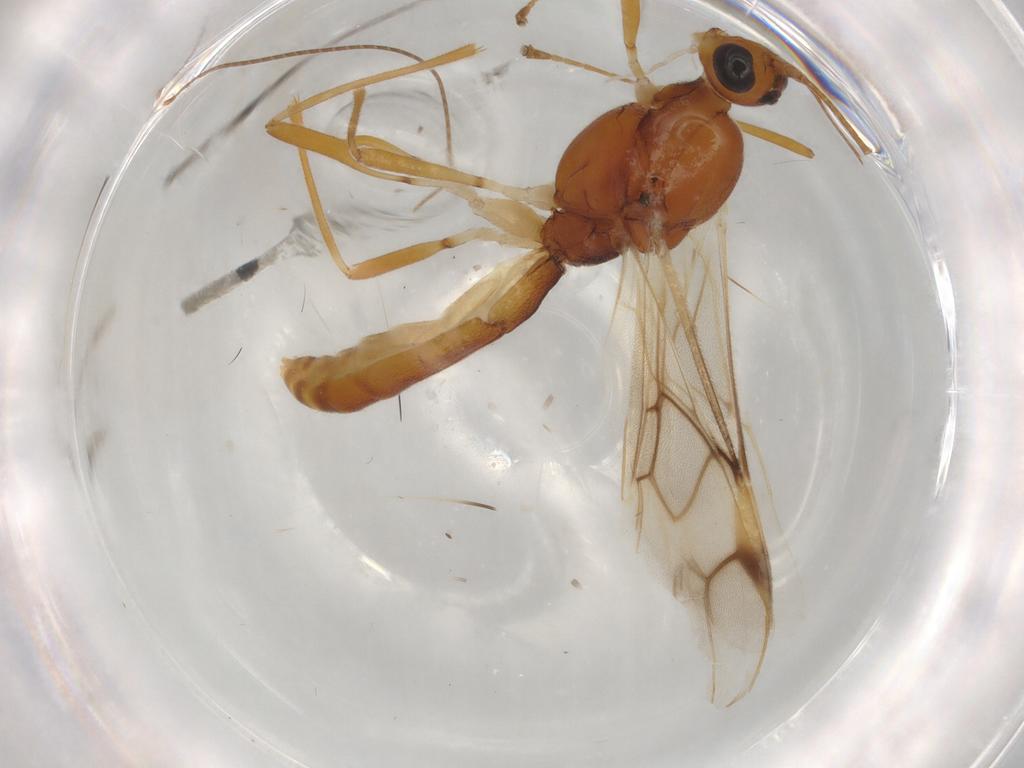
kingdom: Animalia
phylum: Arthropoda
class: Insecta
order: Hymenoptera
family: Braconidae
